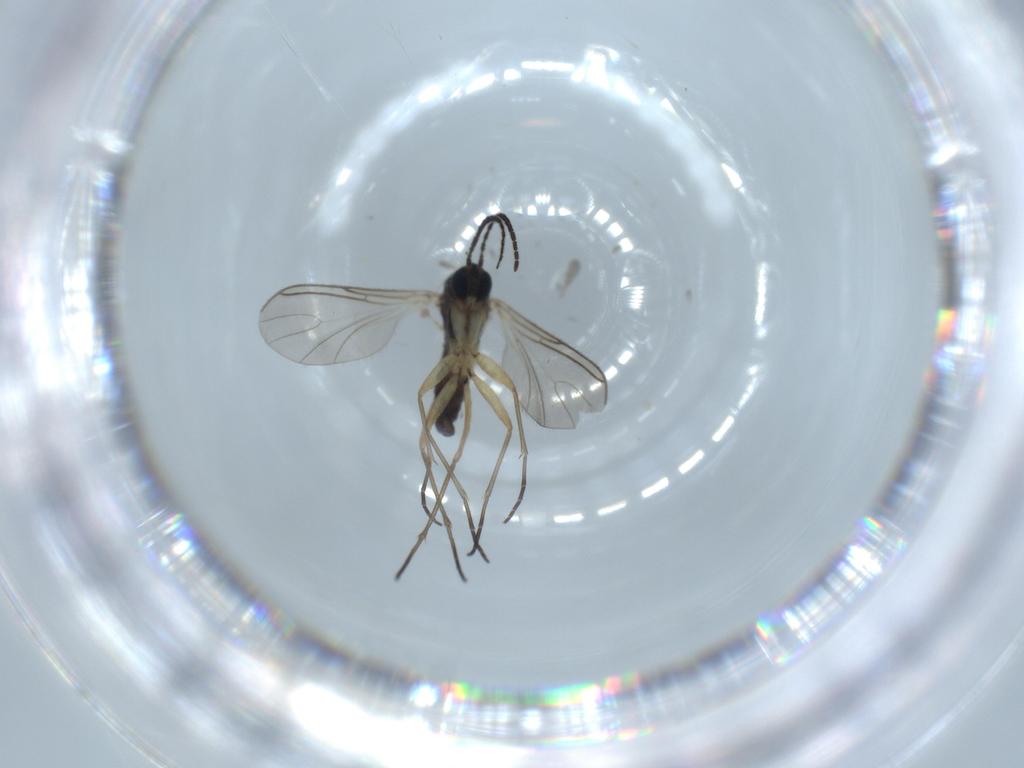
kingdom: Animalia
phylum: Arthropoda
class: Insecta
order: Diptera
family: Sciaridae
